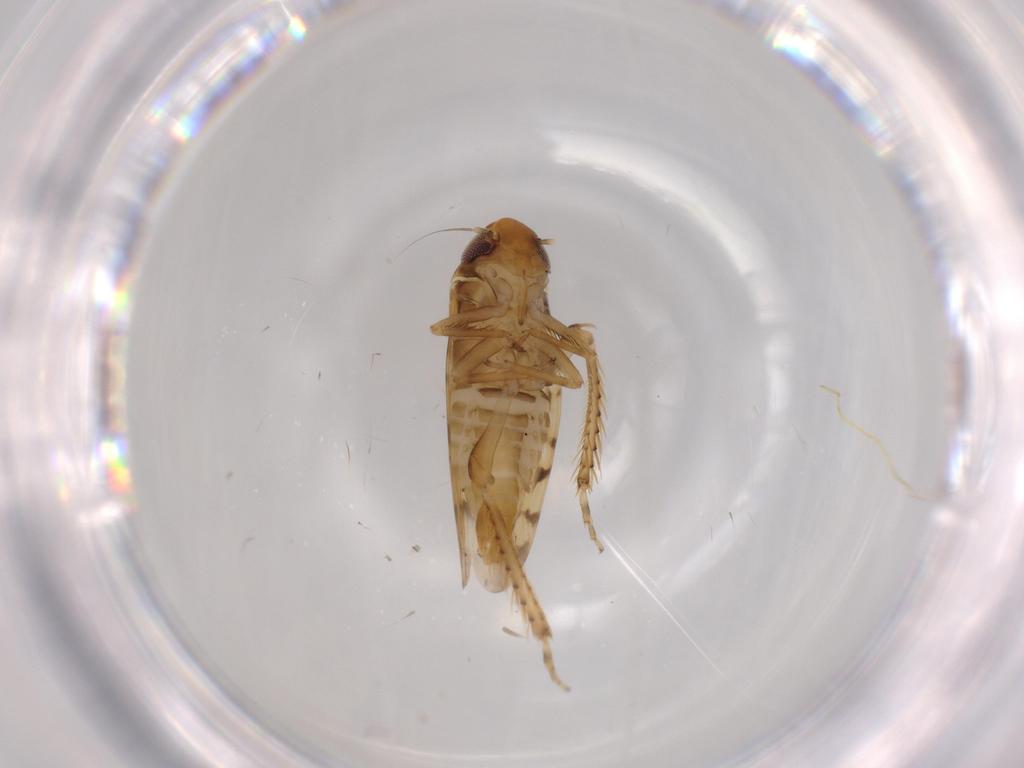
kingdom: Animalia
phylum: Arthropoda
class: Insecta
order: Hemiptera
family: Cicadellidae
